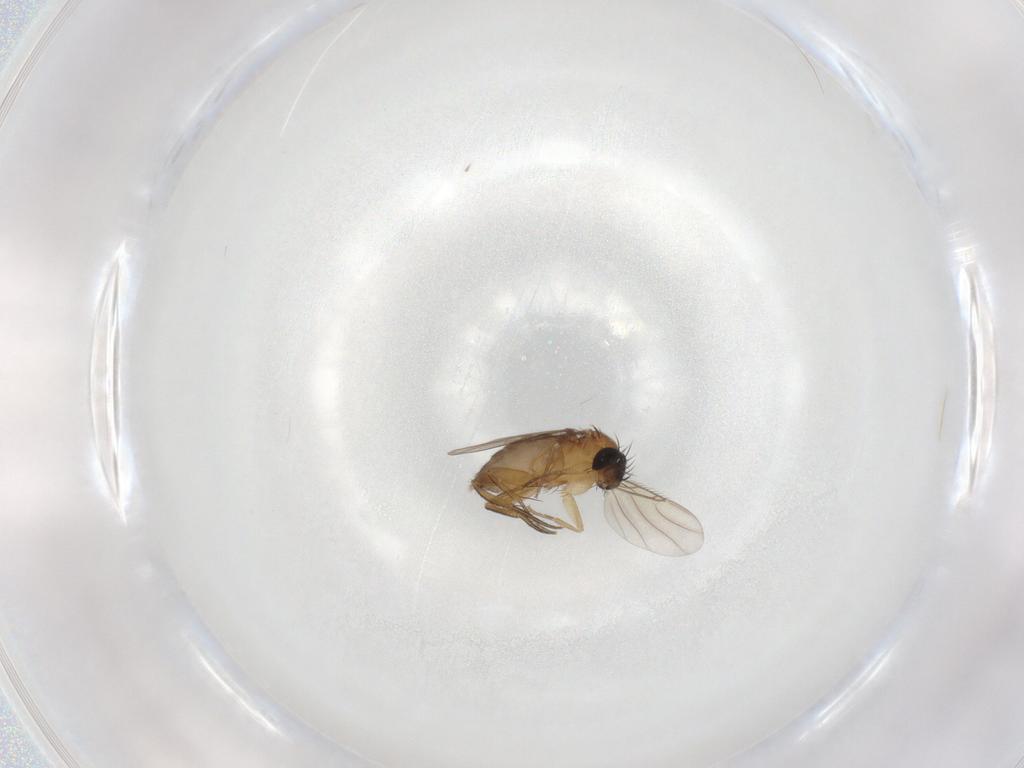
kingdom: Animalia
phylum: Arthropoda
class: Insecta
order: Diptera
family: Phoridae
